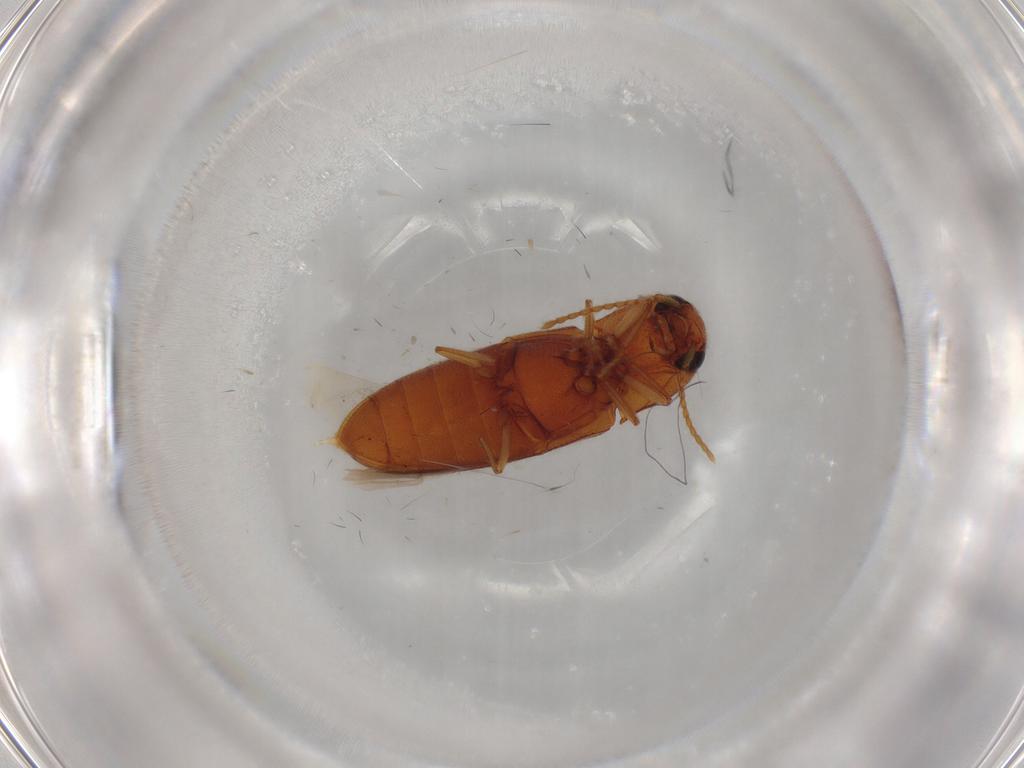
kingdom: Animalia
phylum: Arthropoda
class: Insecta
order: Coleoptera
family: Elateridae
